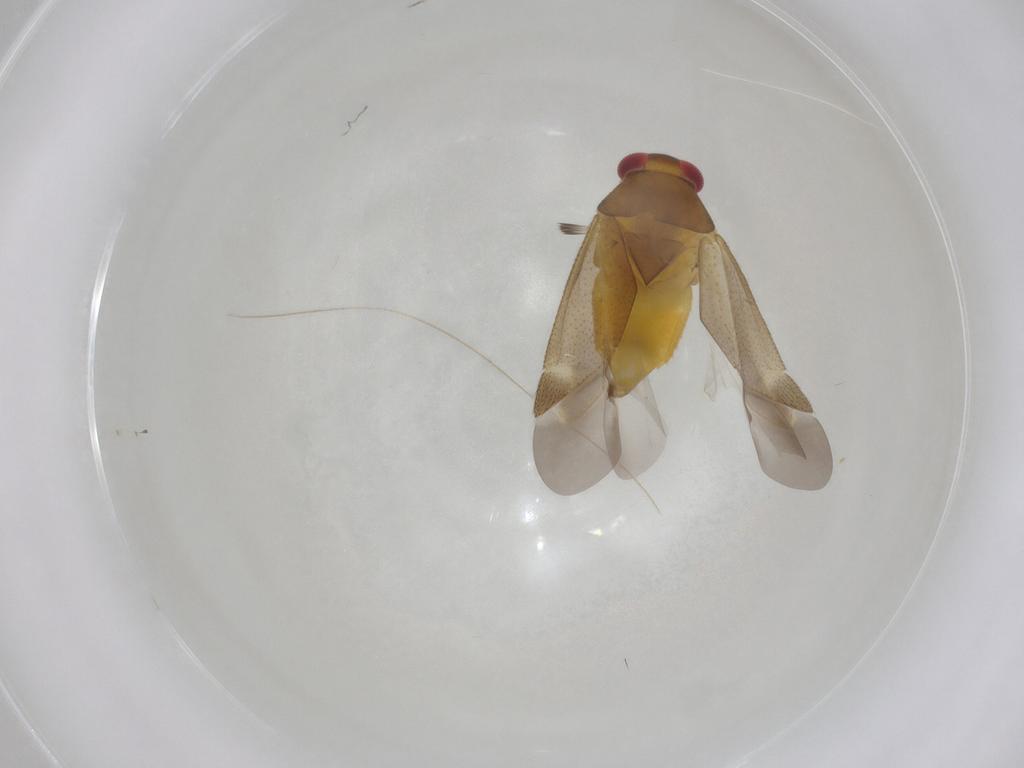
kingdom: Animalia
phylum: Arthropoda
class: Insecta
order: Hemiptera
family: Miridae
